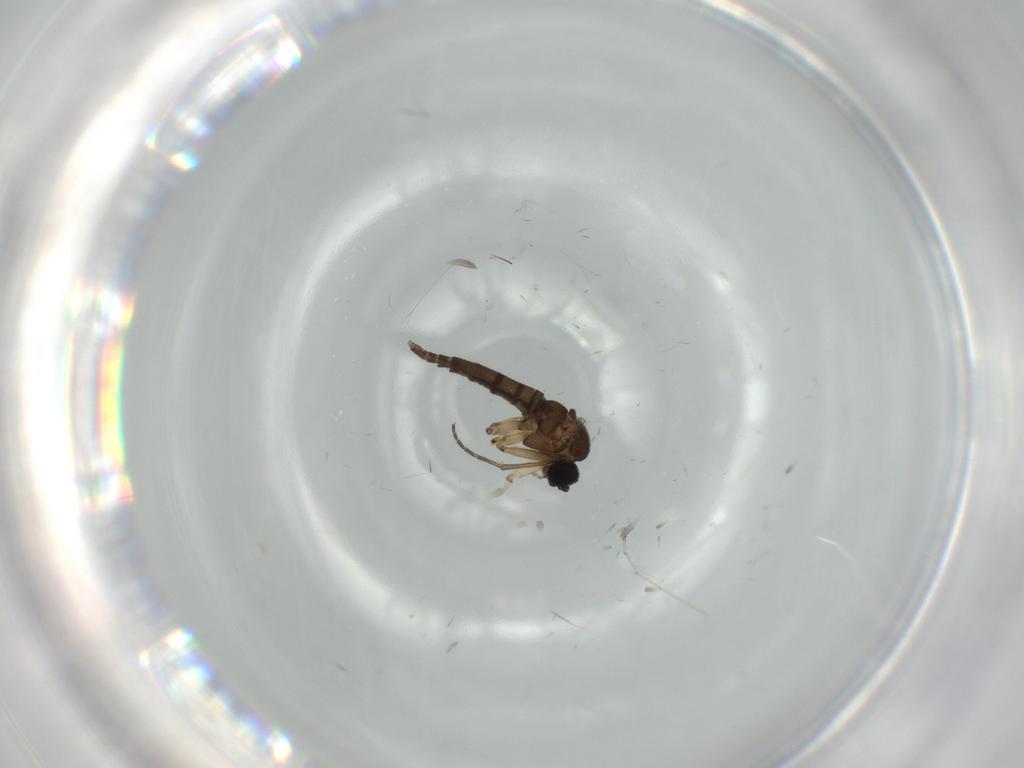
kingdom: Animalia
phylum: Arthropoda
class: Insecta
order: Diptera
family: Sciaridae
